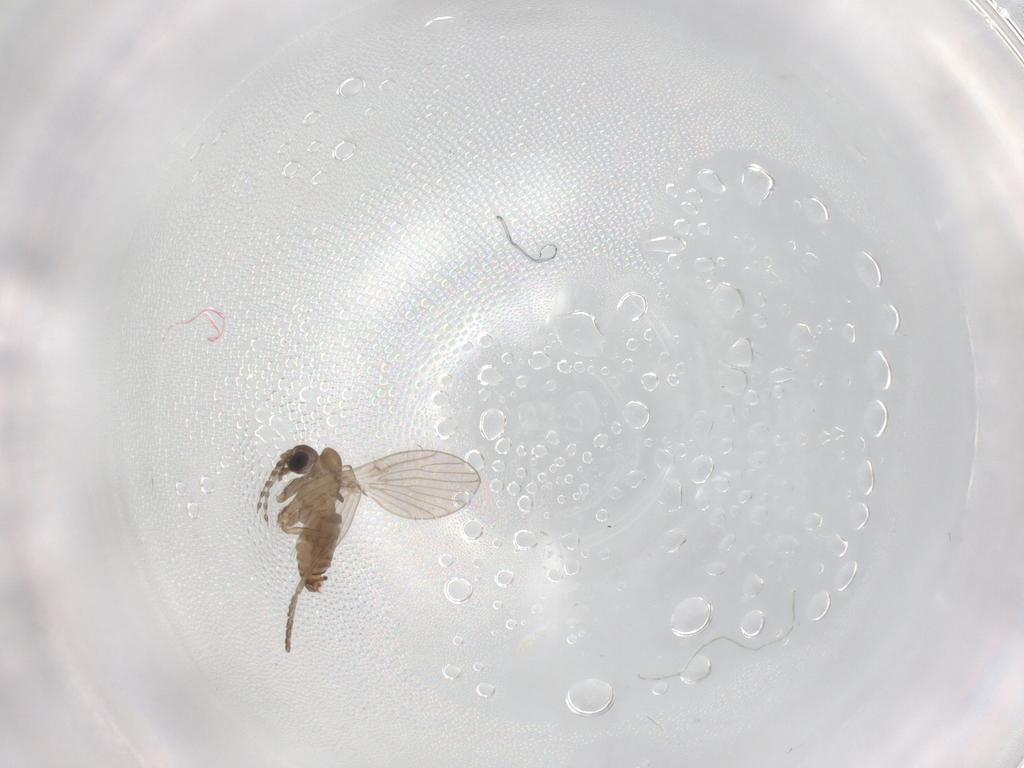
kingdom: Animalia
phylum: Arthropoda
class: Insecta
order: Diptera
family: Psychodidae
